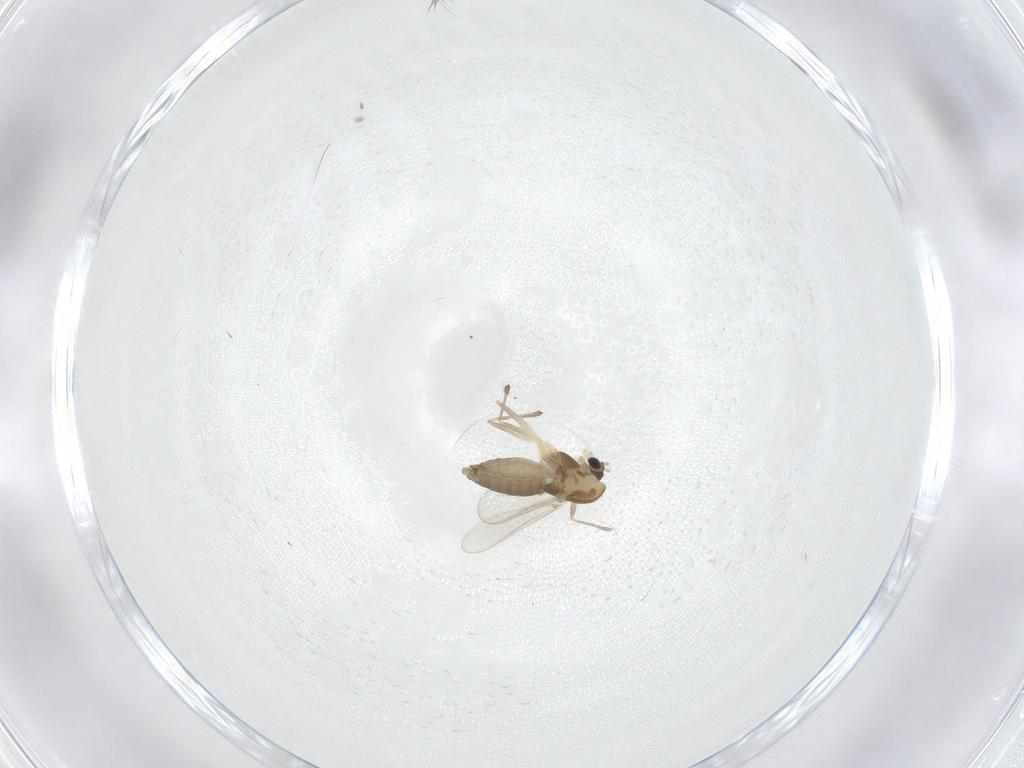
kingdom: Animalia
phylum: Arthropoda
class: Insecta
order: Diptera
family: Chironomidae
